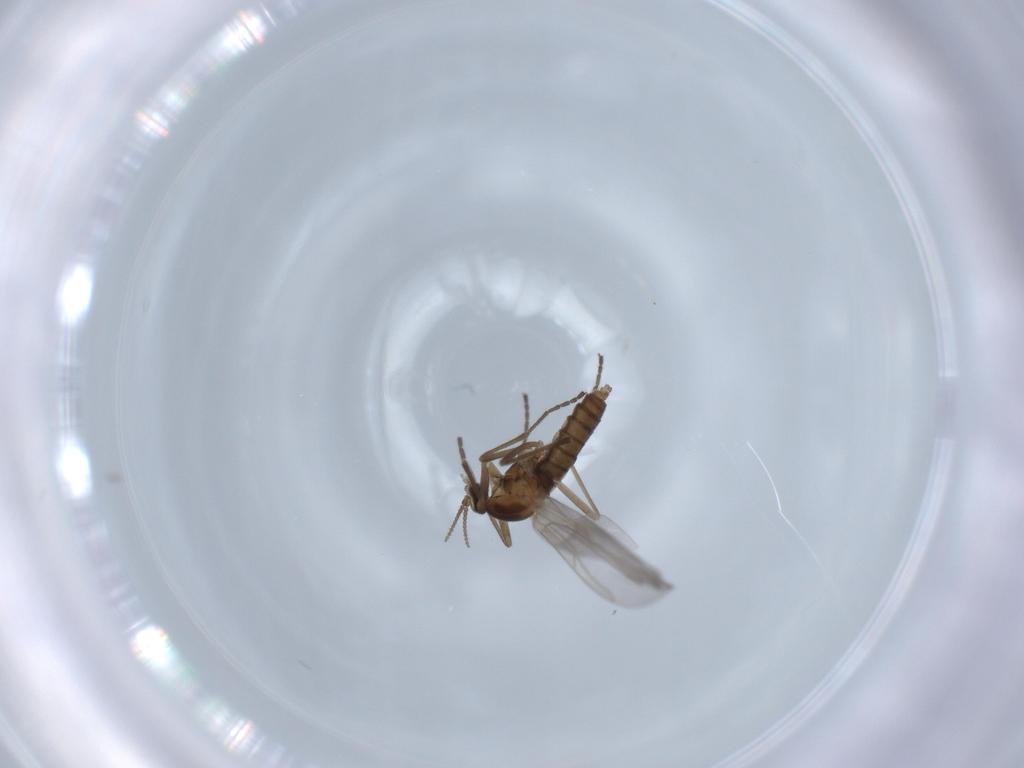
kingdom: Animalia
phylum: Arthropoda
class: Insecta
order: Diptera
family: Cecidomyiidae
